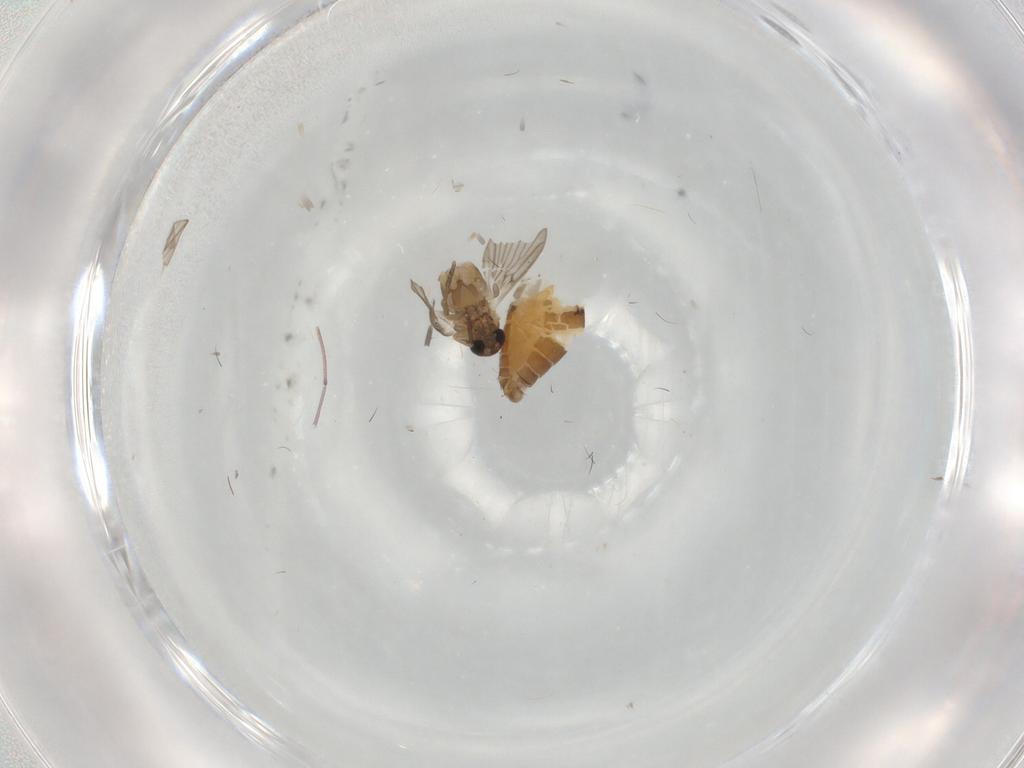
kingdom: Animalia
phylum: Arthropoda
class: Insecta
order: Diptera
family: Psychodidae
